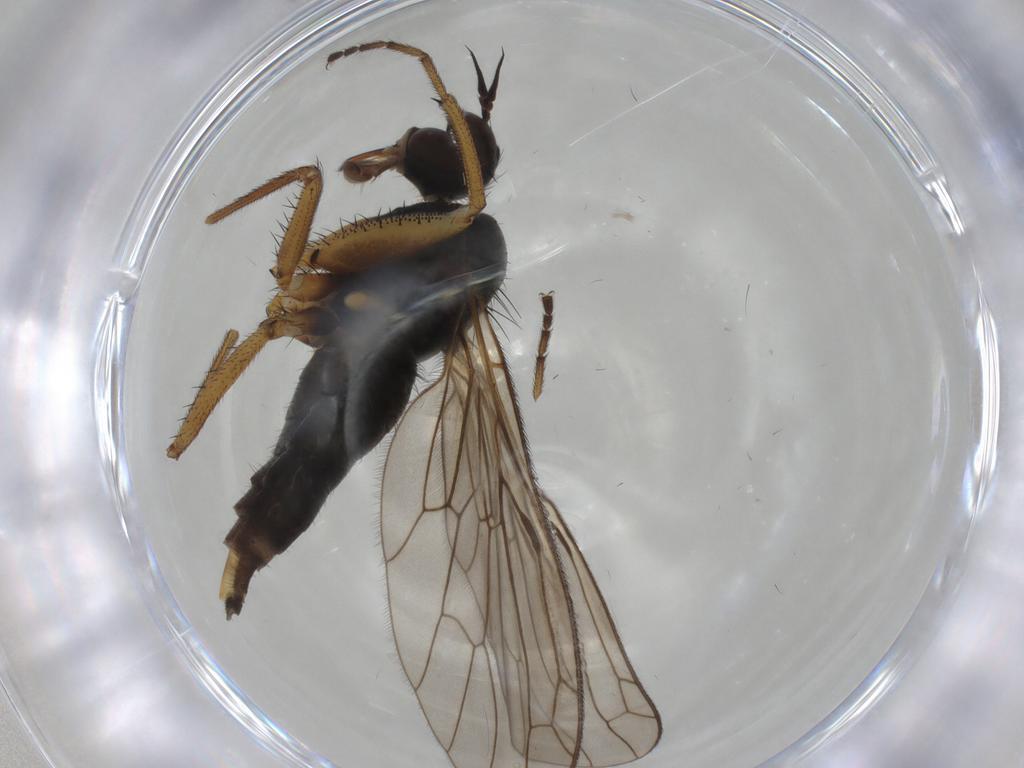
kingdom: Animalia
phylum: Arthropoda
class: Insecta
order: Diptera
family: Empididae
